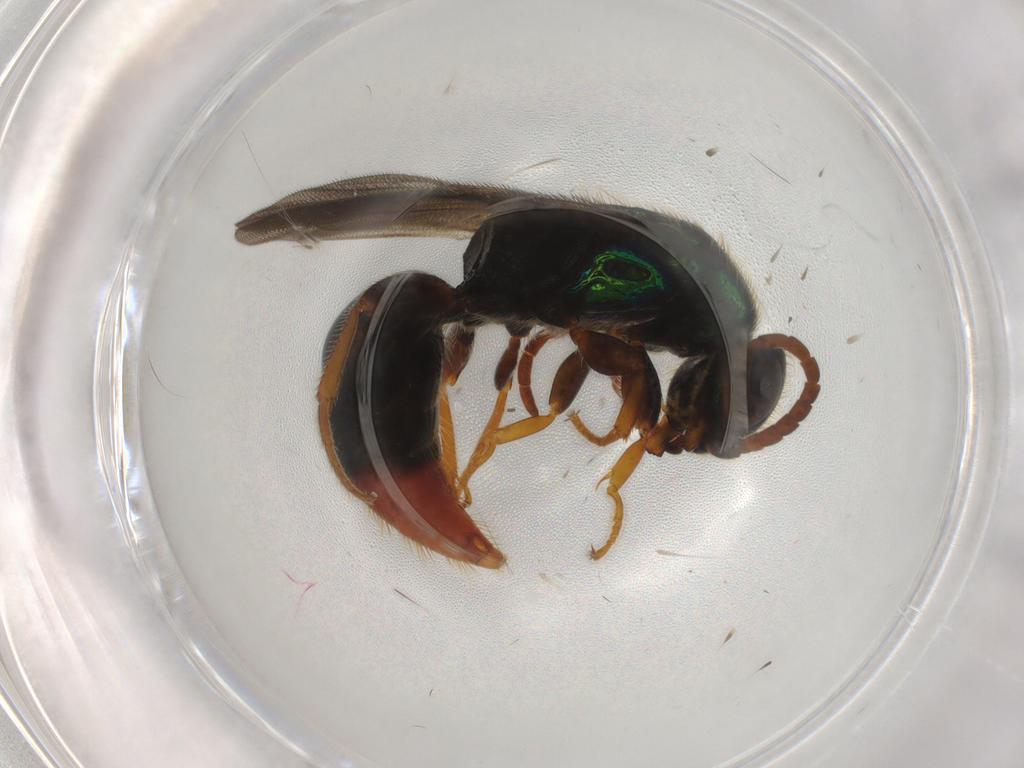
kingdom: Animalia
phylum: Arthropoda
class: Insecta
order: Hymenoptera
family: Bethylidae
